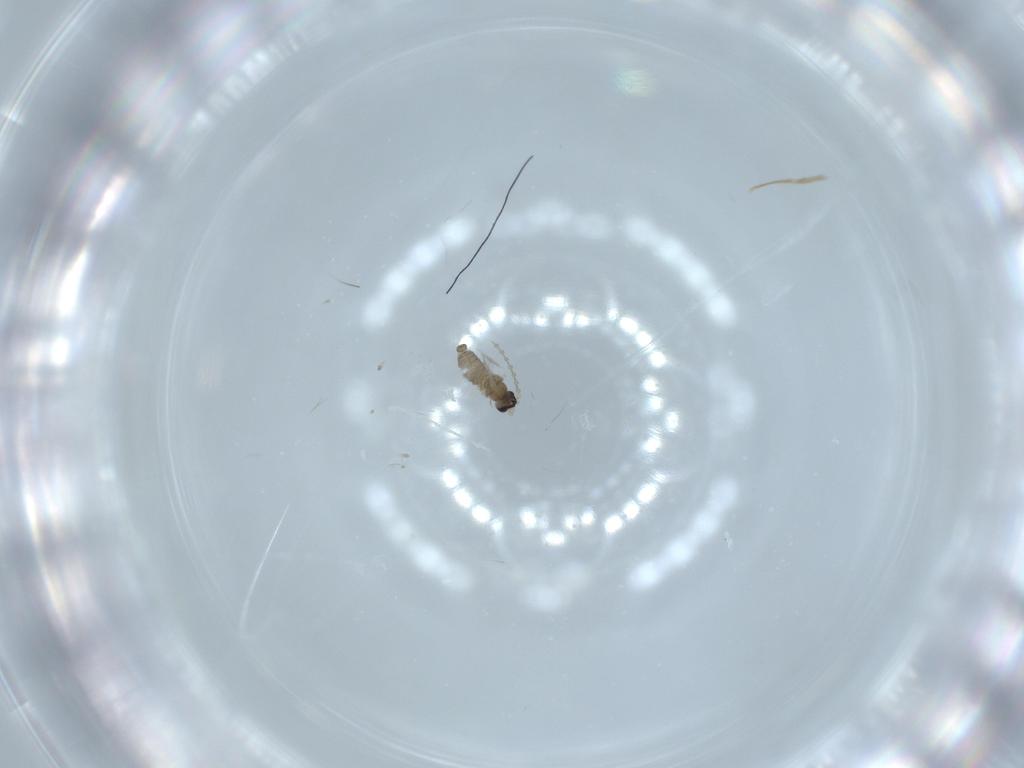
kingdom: Animalia
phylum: Arthropoda
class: Insecta
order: Diptera
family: Cecidomyiidae
